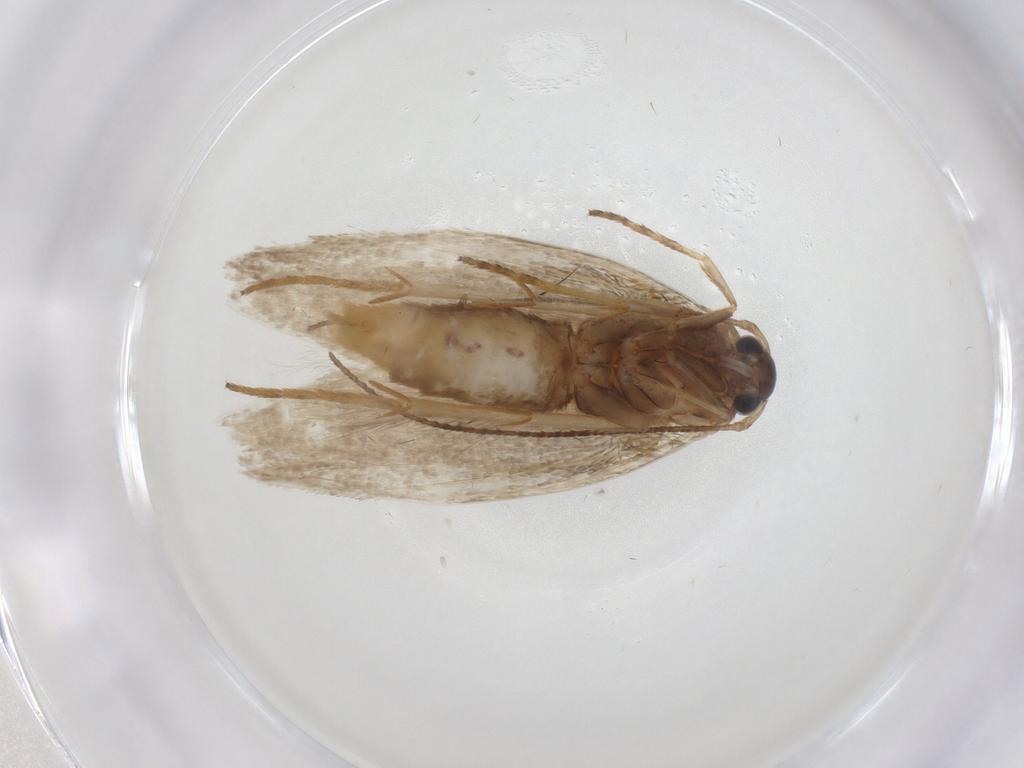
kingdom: Animalia
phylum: Arthropoda
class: Insecta
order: Lepidoptera
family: Erebidae
